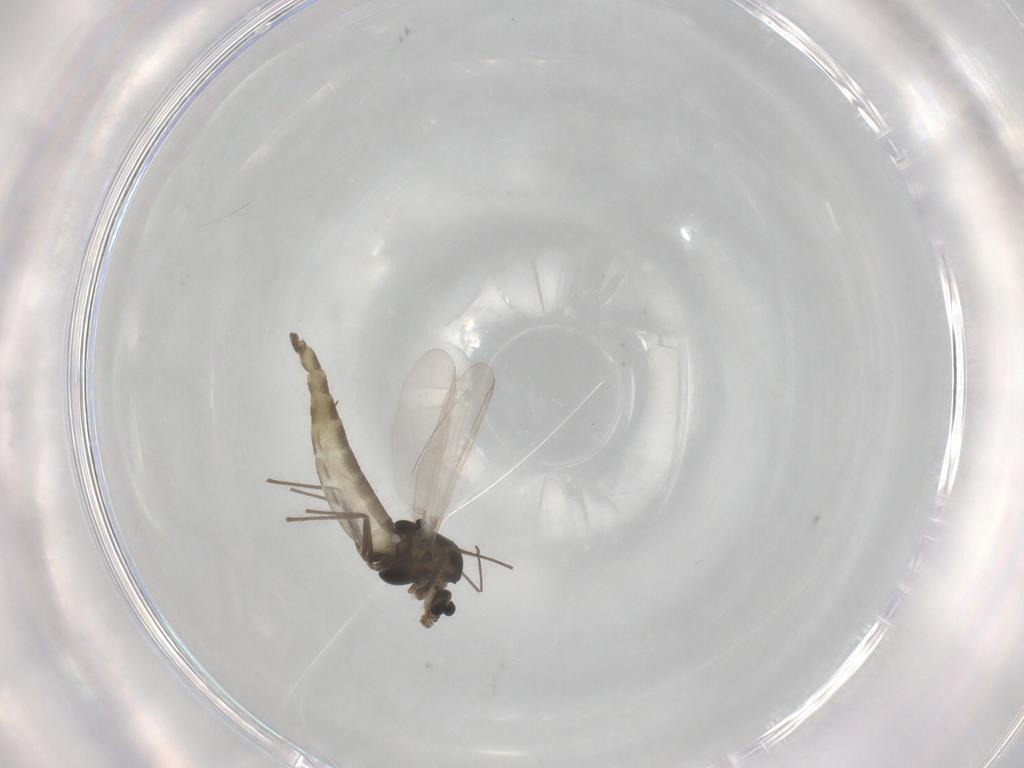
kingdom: Animalia
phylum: Arthropoda
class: Insecta
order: Diptera
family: Chironomidae
